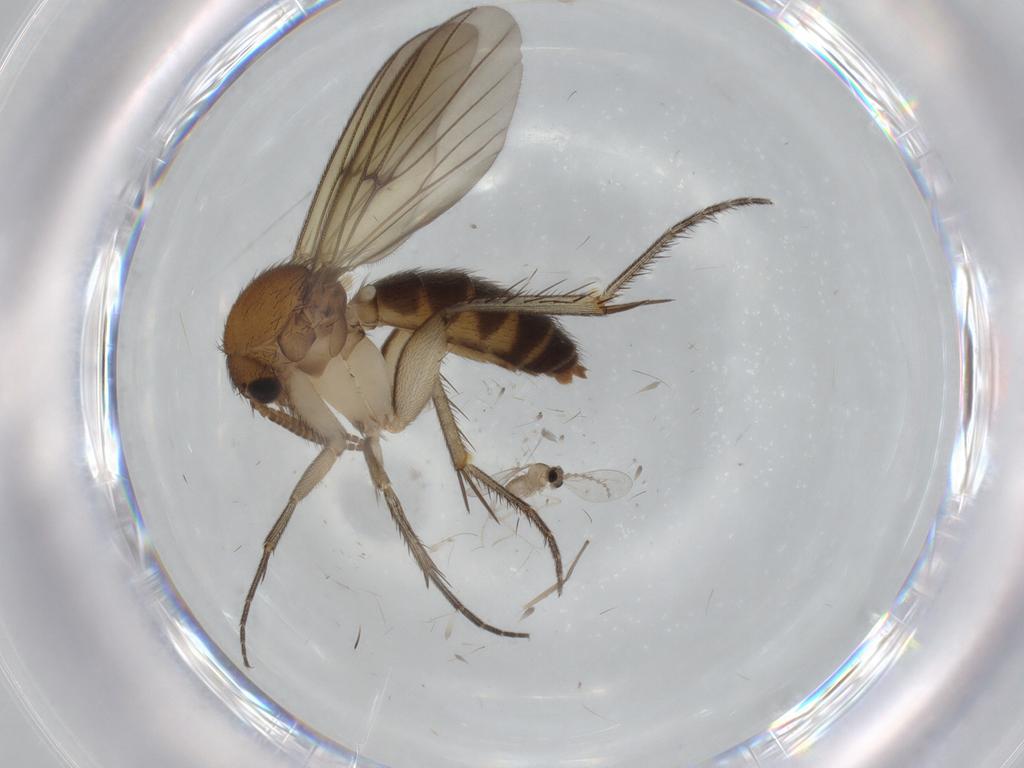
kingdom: Animalia
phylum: Arthropoda
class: Insecta
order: Diptera
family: Mycetophilidae
